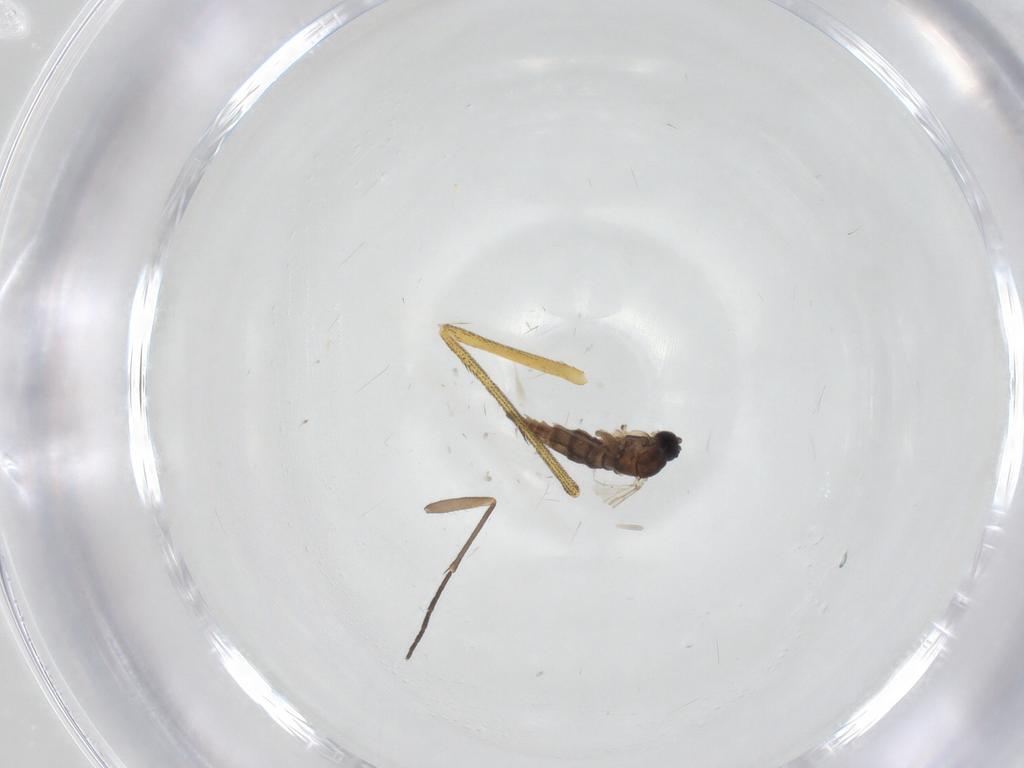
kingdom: Animalia
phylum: Arthropoda
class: Insecta
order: Diptera
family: Dolichopodidae
